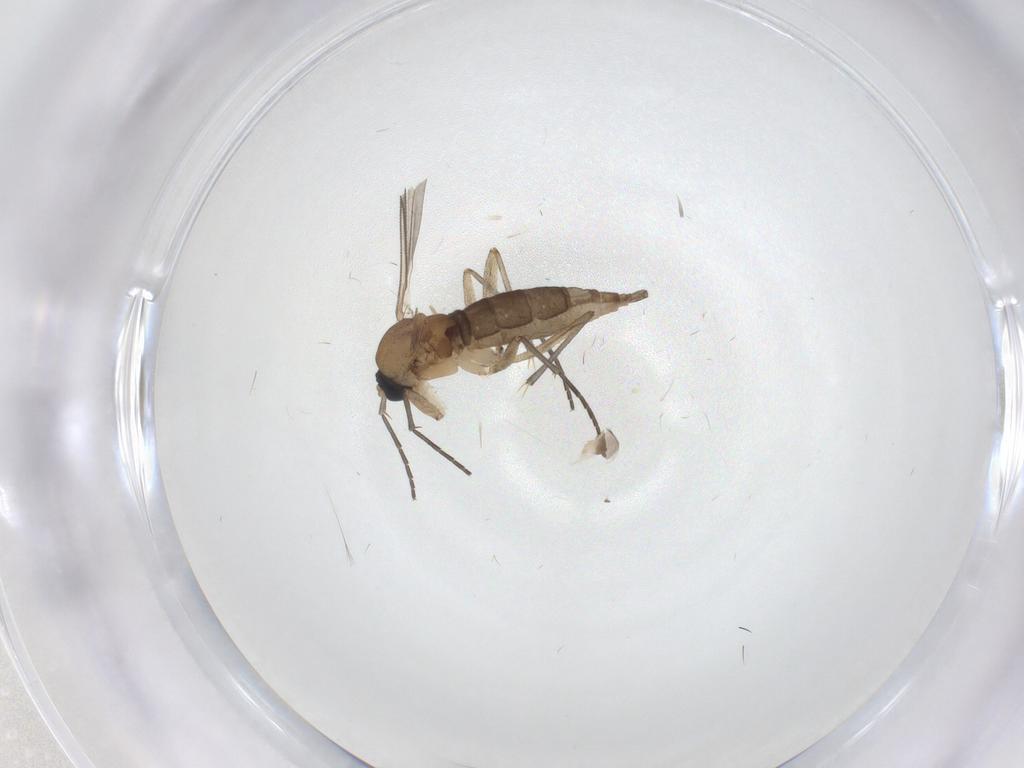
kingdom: Animalia
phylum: Arthropoda
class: Insecta
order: Diptera
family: Sciaridae
